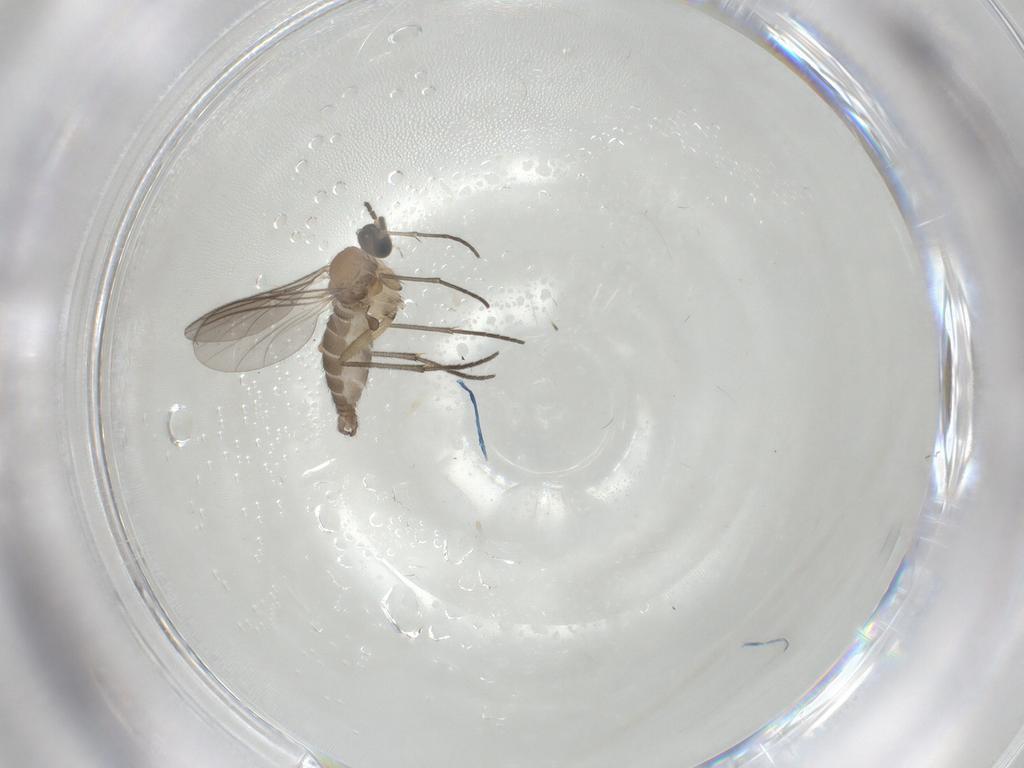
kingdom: Animalia
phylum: Arthropoda
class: Insecta
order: Diptera
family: Sciaridae
